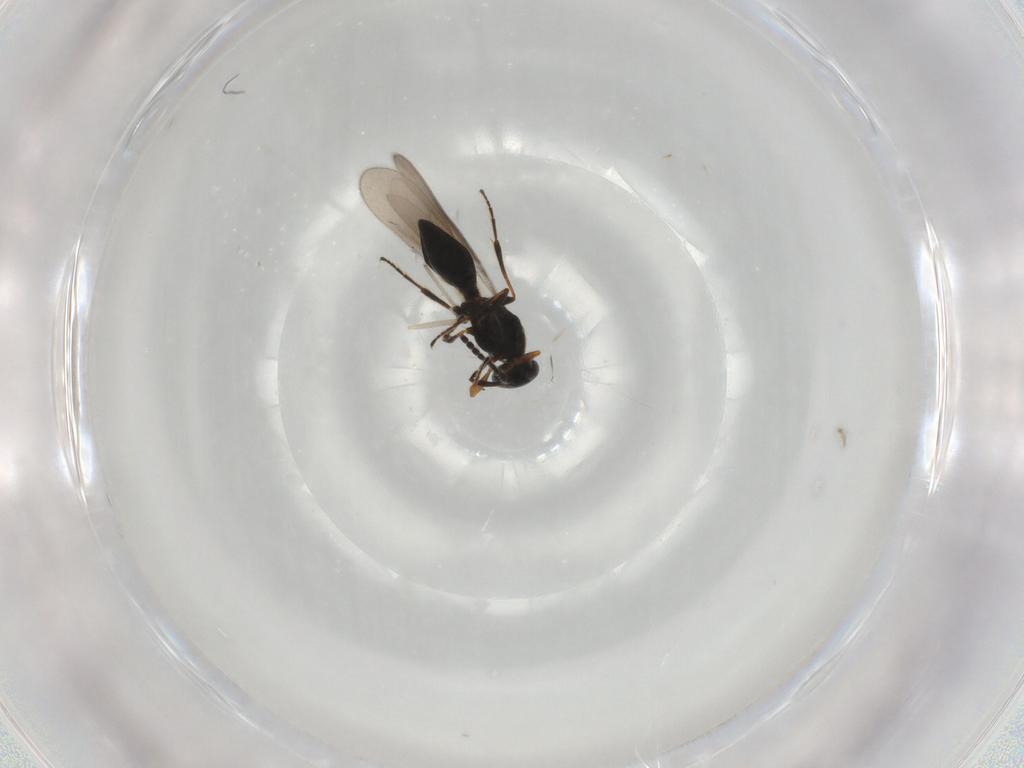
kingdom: Animalia
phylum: Arthropoda
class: Insecta
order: Hymenoptera
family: Platygastridae
